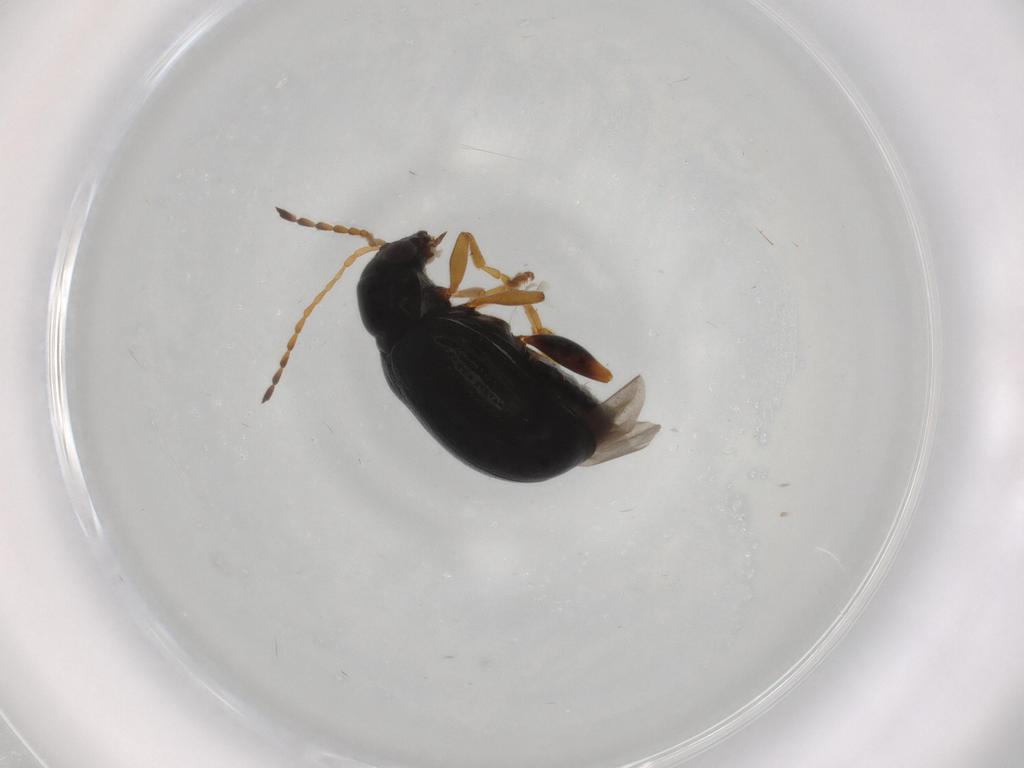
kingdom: Animalia
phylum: Arthropoda
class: Insecta
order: Coleoptera
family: Chrysomelidae
